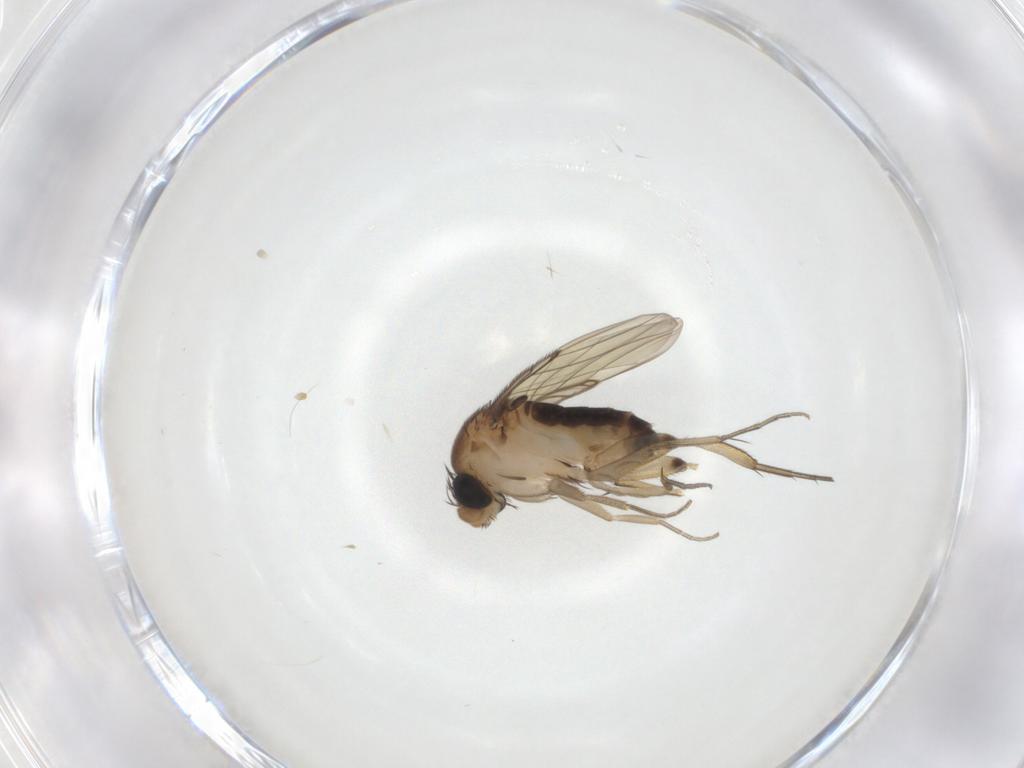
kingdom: Animalia
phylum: Arthropoda
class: Insecta
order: Diptera
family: Phoridae
